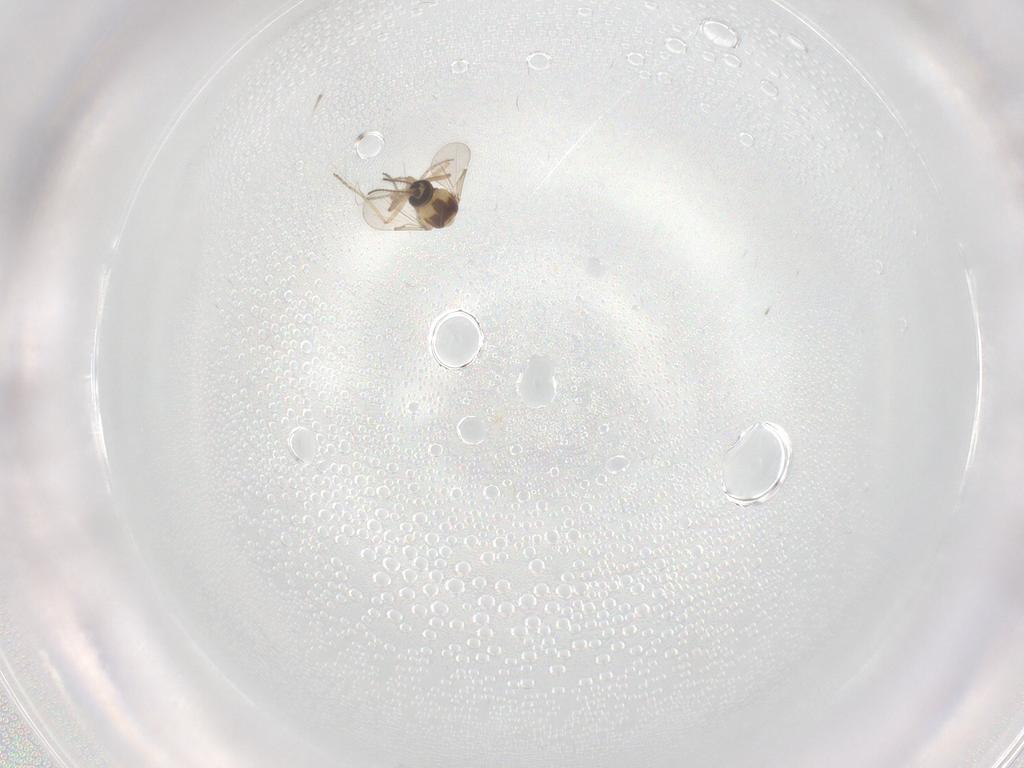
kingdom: Animalia
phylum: Arthropoda
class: Insecta
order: Diptera
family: Ceratopogonidae
